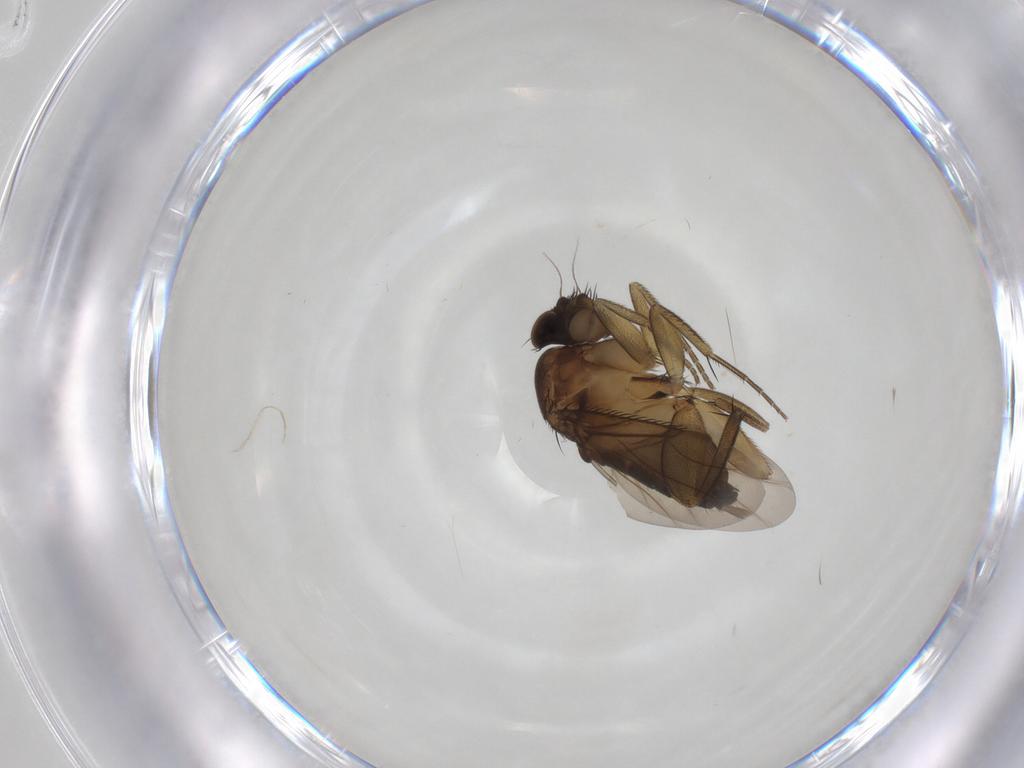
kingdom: Animalia
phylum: Arthropoda
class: Insecta
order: Diptera
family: Phoridae
